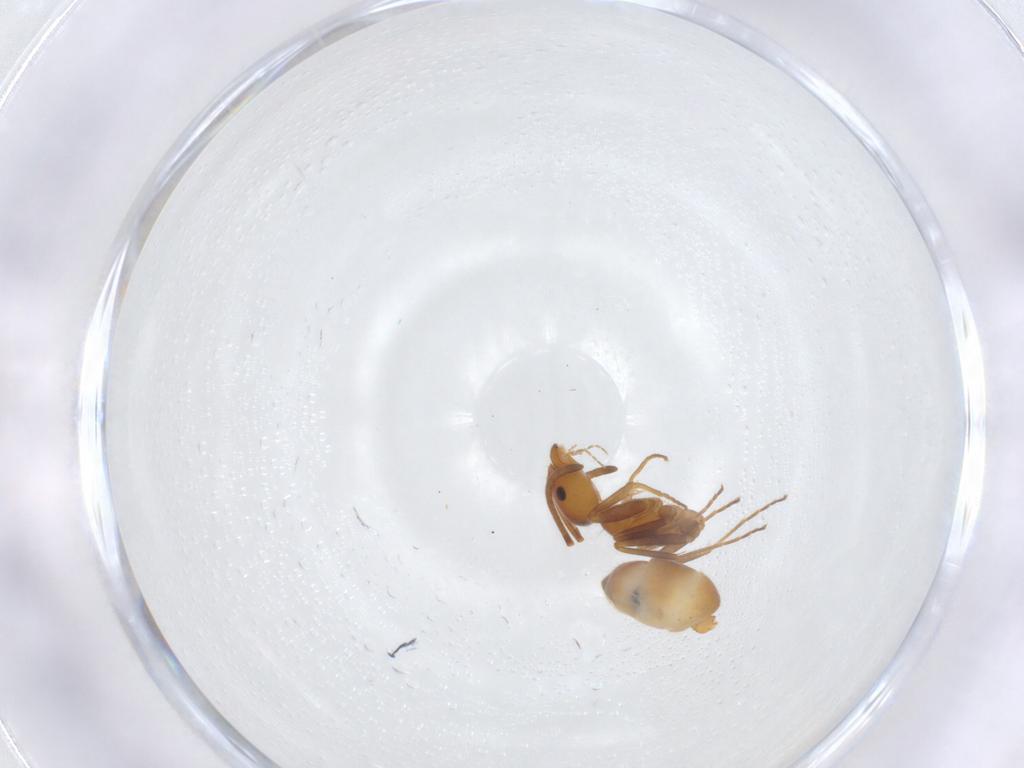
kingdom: Animalia
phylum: Arthropoda
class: Insecta
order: Hymenoptera
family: Formicidae
